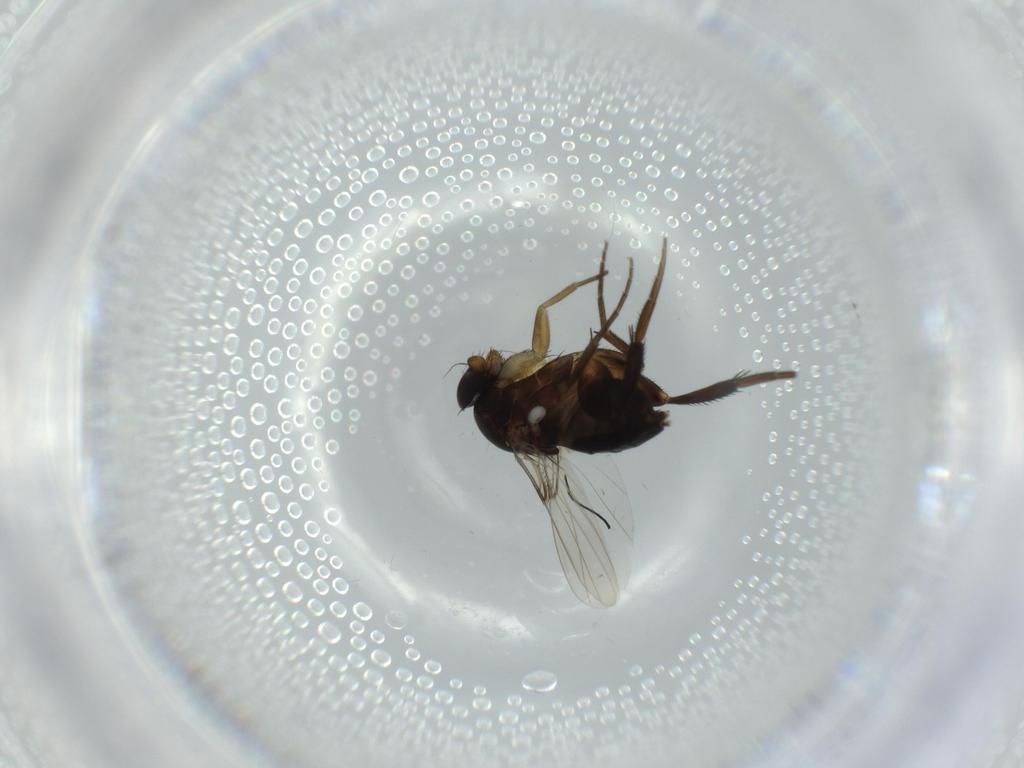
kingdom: Animalia
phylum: Arthropoda
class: Insecta
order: Diptera
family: Phoridae
